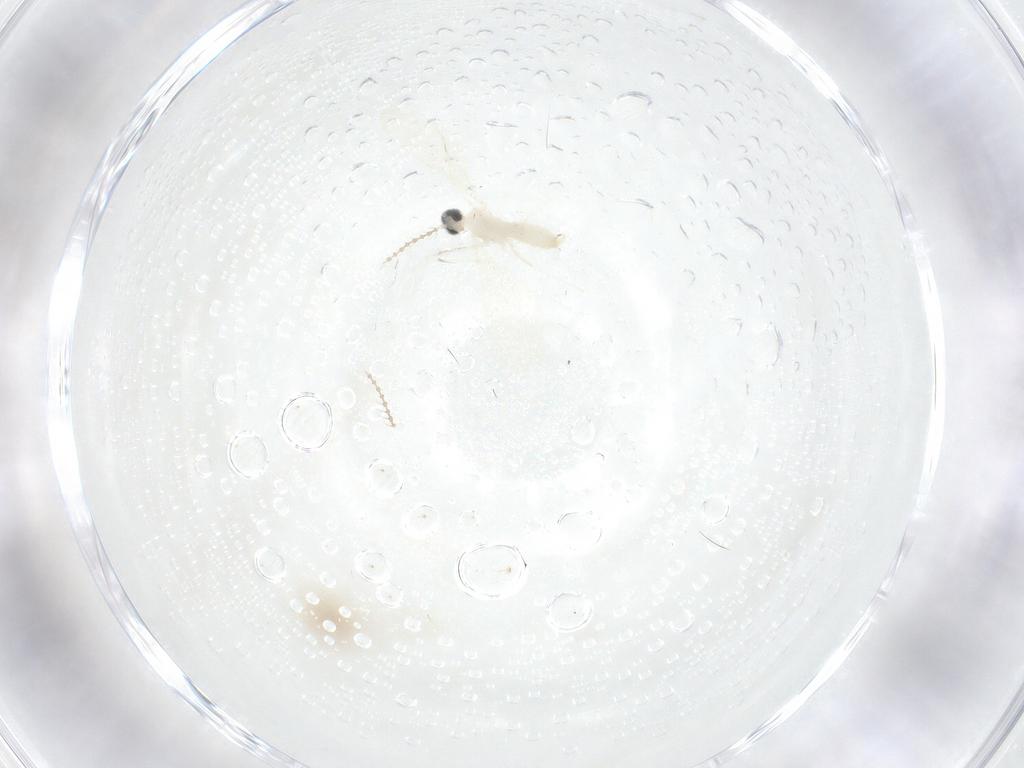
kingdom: Animalia
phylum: Arthropoda
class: Insecta
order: Diptera
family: Cecidomyiidae
